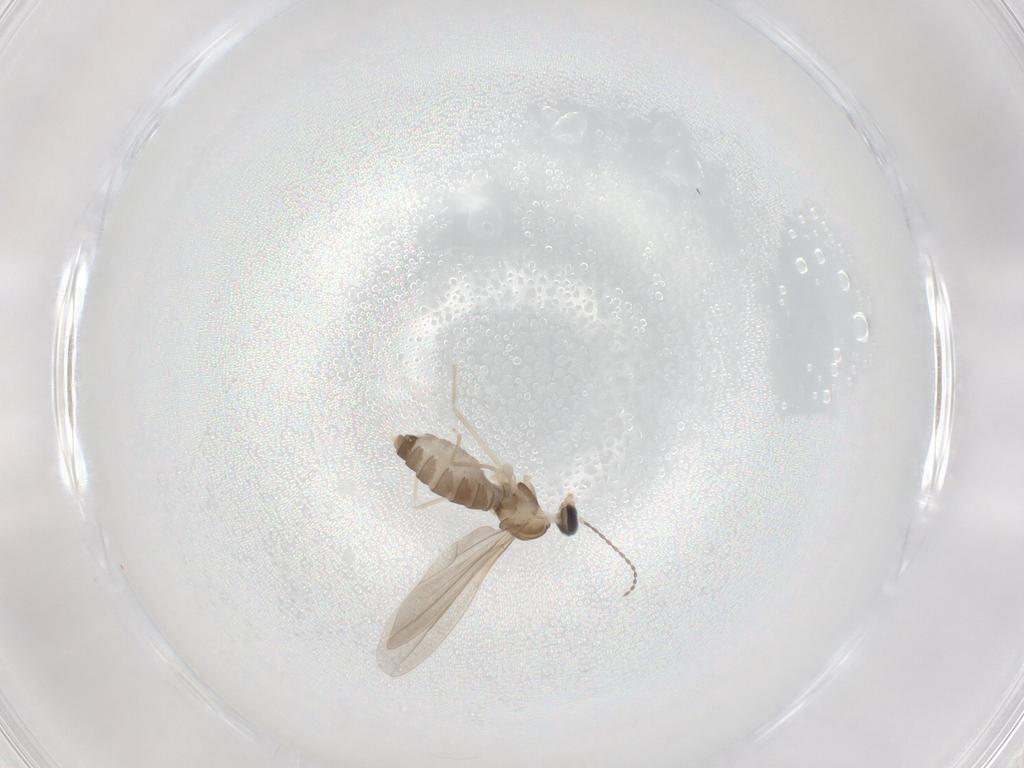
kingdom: Animalia
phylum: Arthropoda
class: Insecta
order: Diptera
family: Cecidomyiidae
